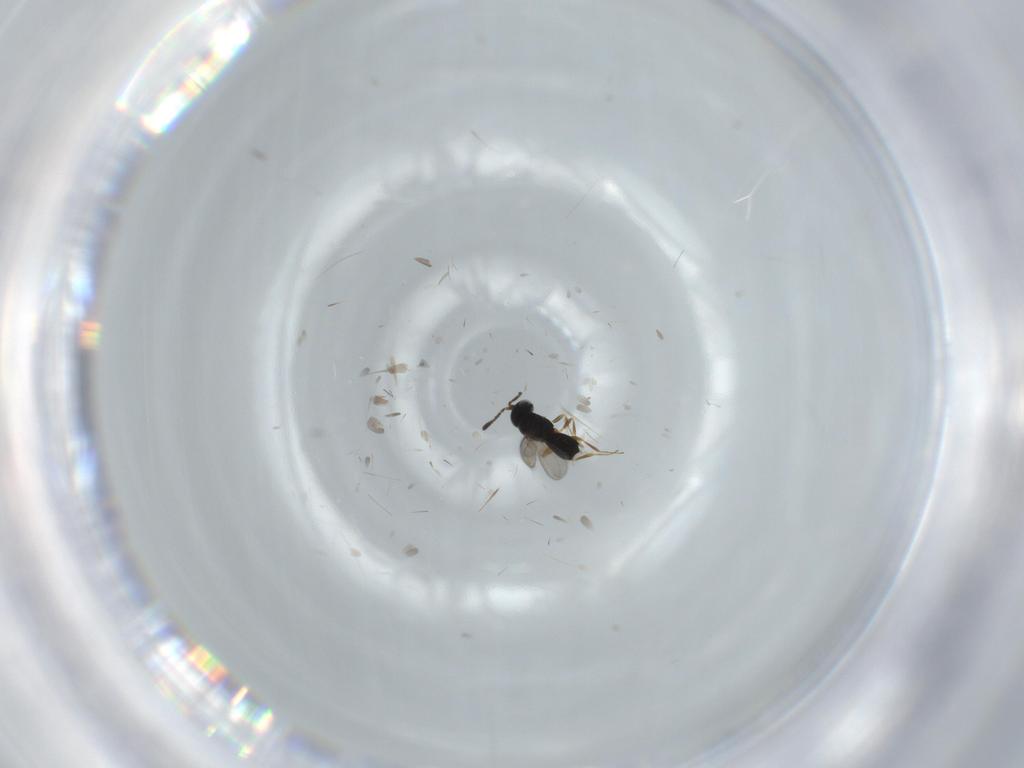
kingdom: Animalia
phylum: Arthropoda
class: Insecta
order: Hymenoptera
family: Scelionidae
